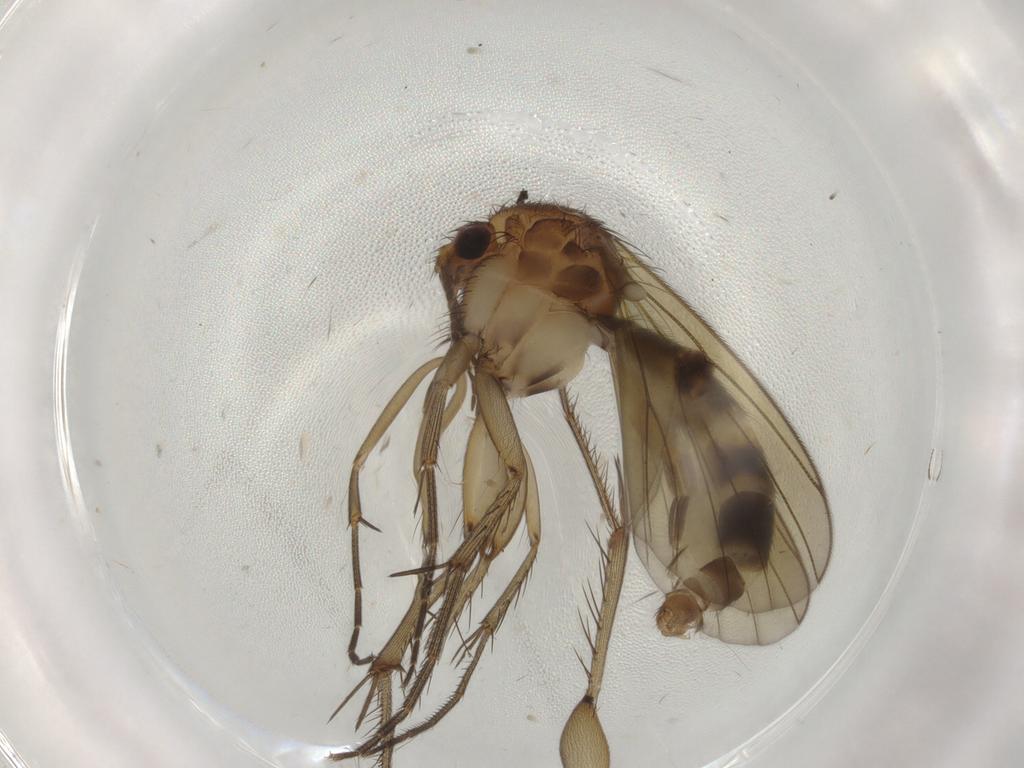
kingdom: Animalia
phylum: Arthropoda
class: Insecta
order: Diptera
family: Mycetophilidae
